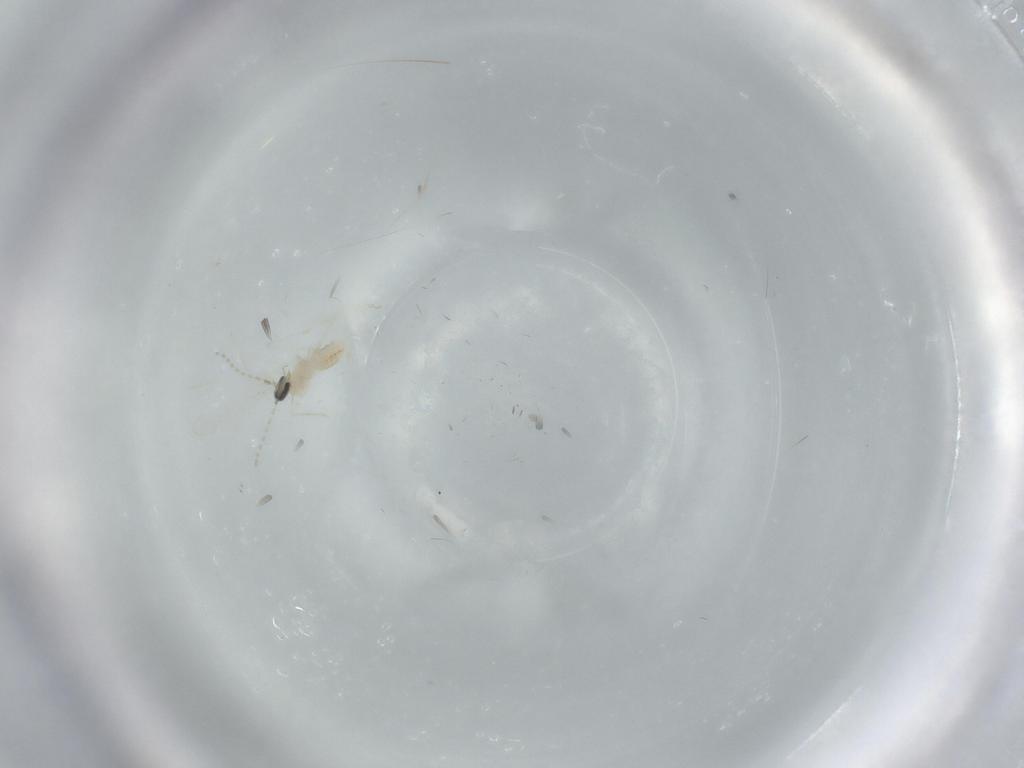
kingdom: Animalia
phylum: Arthropoda
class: Insecta
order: Diptera
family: Cecidomyiidae
